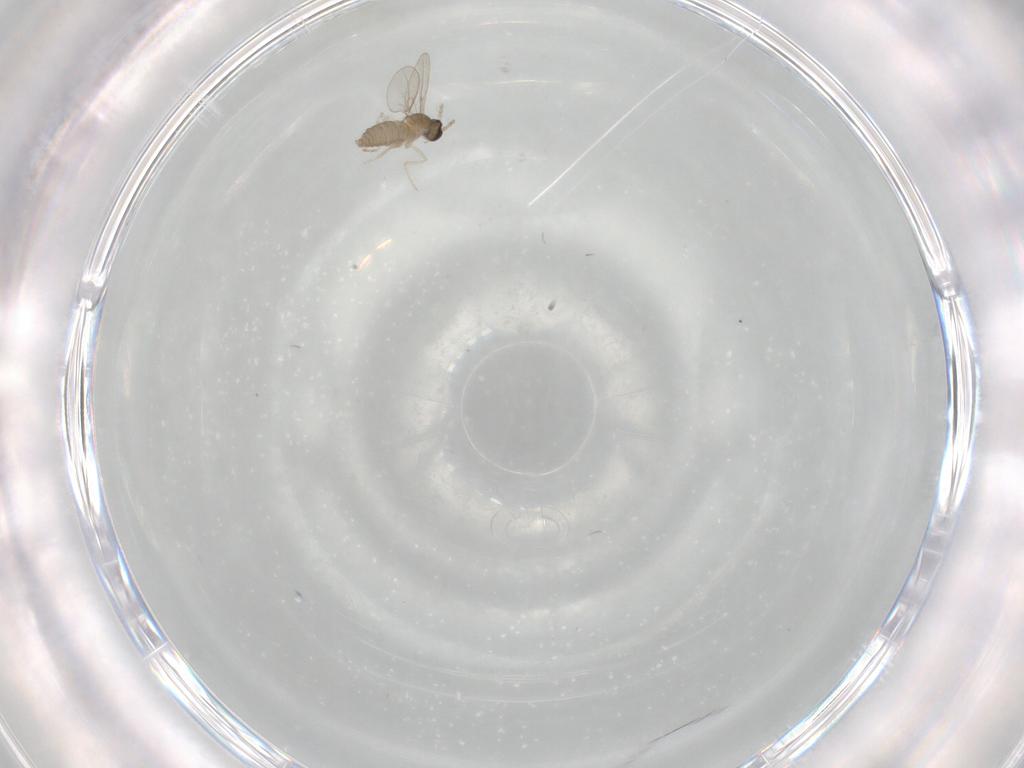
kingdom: Animalia
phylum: Arthropoda
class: Insecta
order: Diptera
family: Cecidomyiidae
